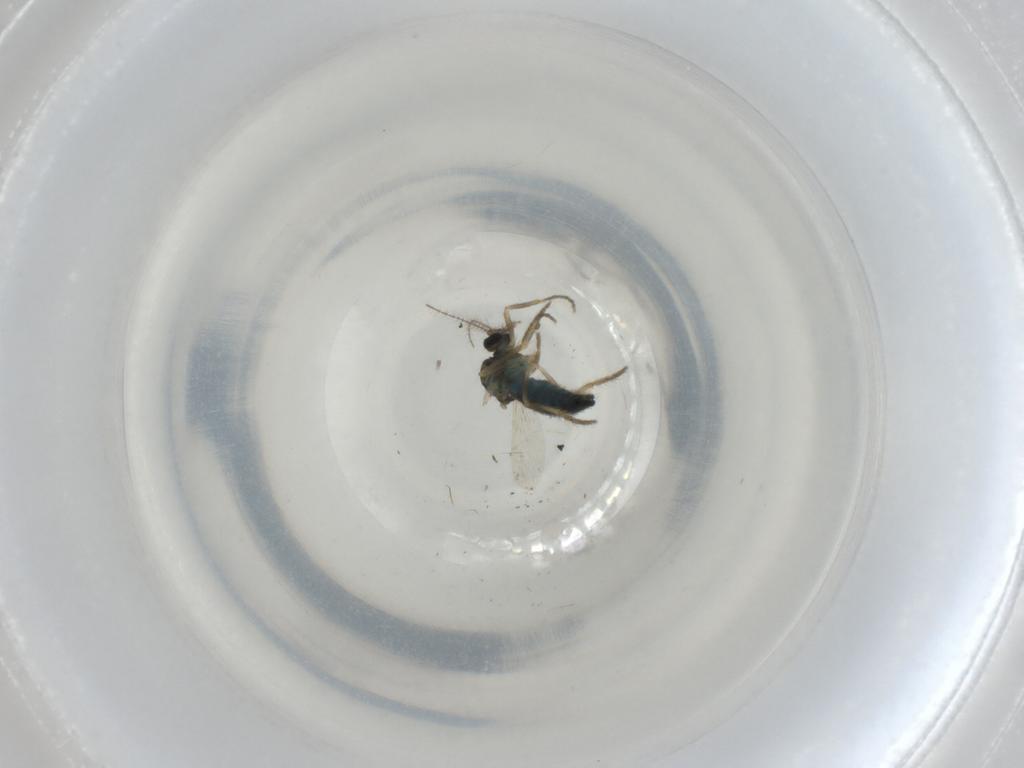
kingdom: Animalia
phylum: Arthropoda
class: Insecta
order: Diptera
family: Ceratopogonidae
